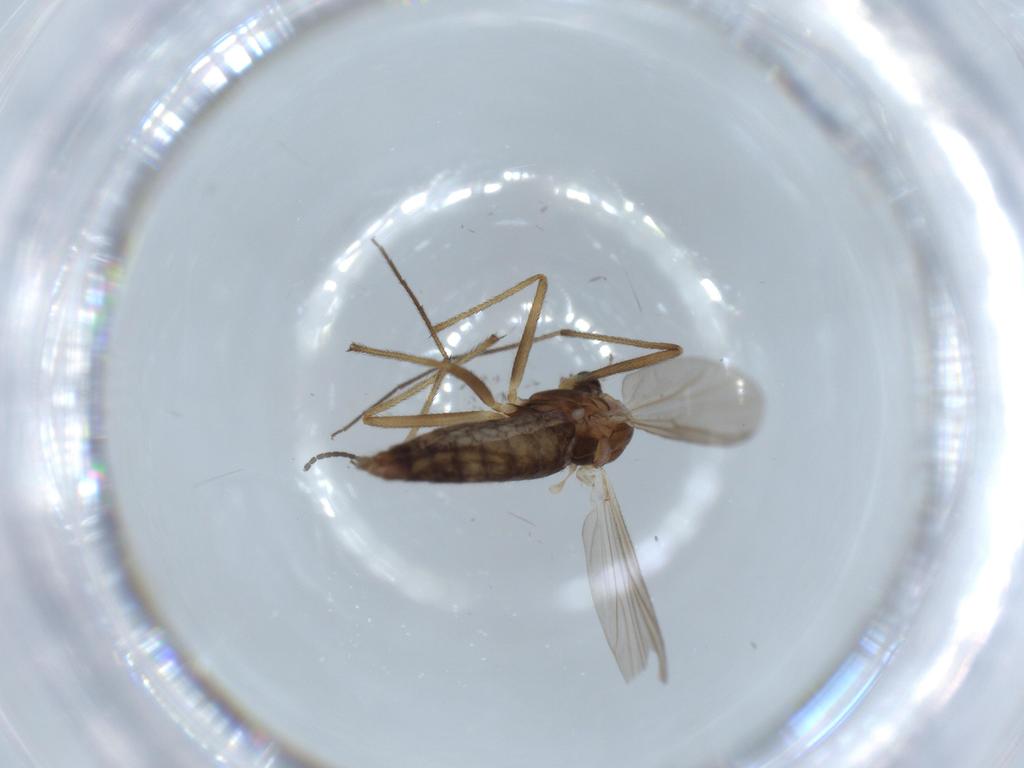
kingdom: Animalia
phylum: Arthropoda
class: Insecta
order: Diptera
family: Chironomidae
